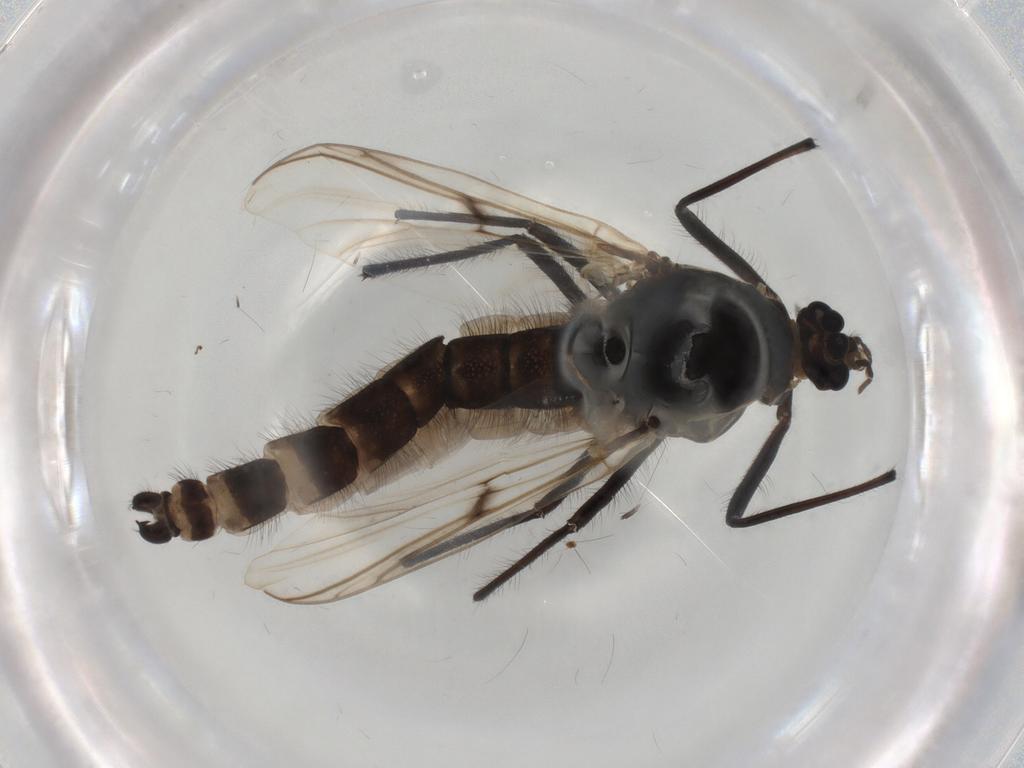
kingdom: Animalia
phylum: Arthropoda
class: Insecta
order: Diptera
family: Chironomidae
